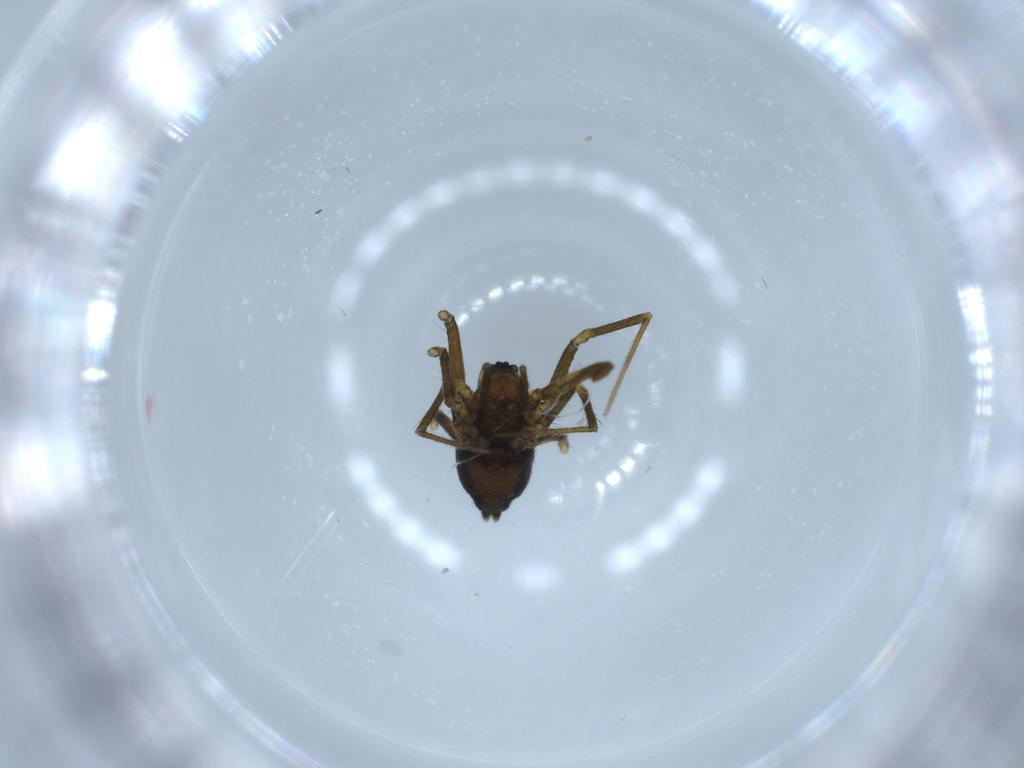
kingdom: Animalia
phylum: Arthropoda
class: Arachnida
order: Araneae
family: Linyphiidae
